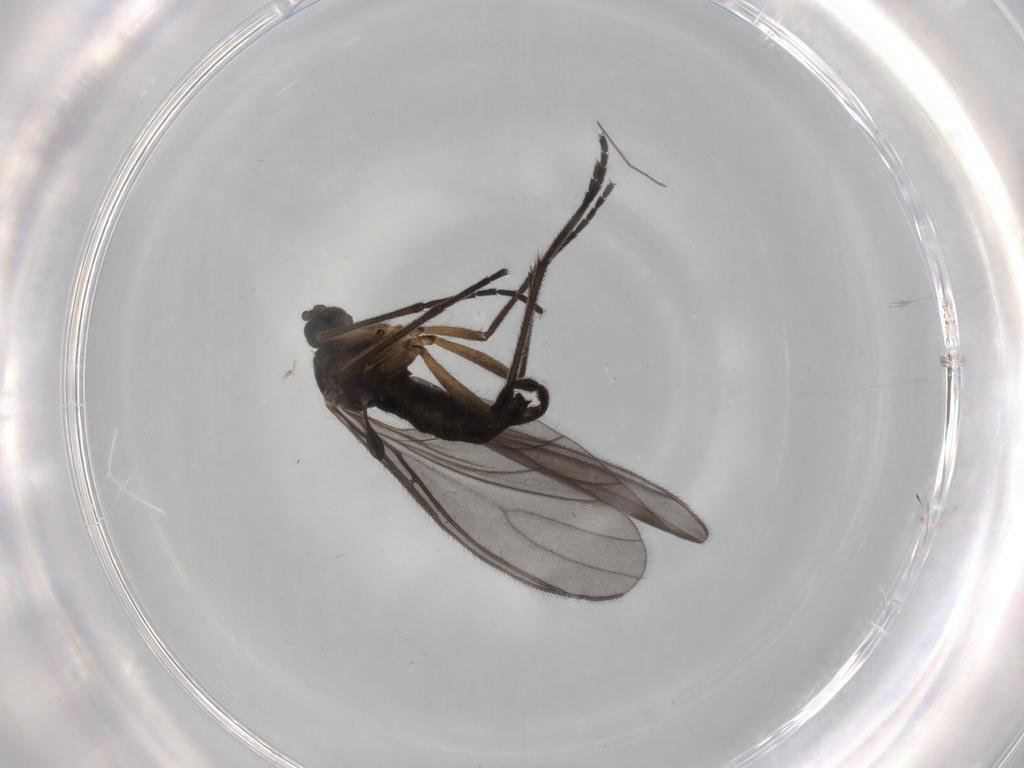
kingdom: Animalia
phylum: Arthropoda
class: Insecta
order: Diptera
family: Sciaridae
